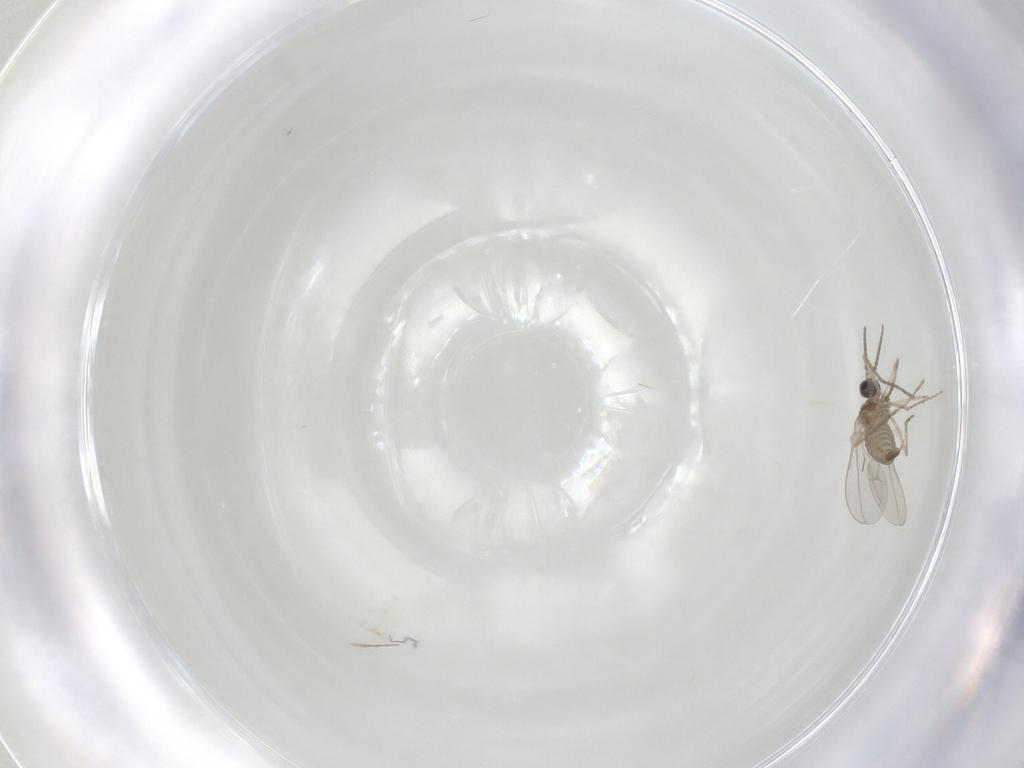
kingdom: Animalia
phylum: Arthropoda
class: Insecta
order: Diptera
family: Cecidomyiidae
